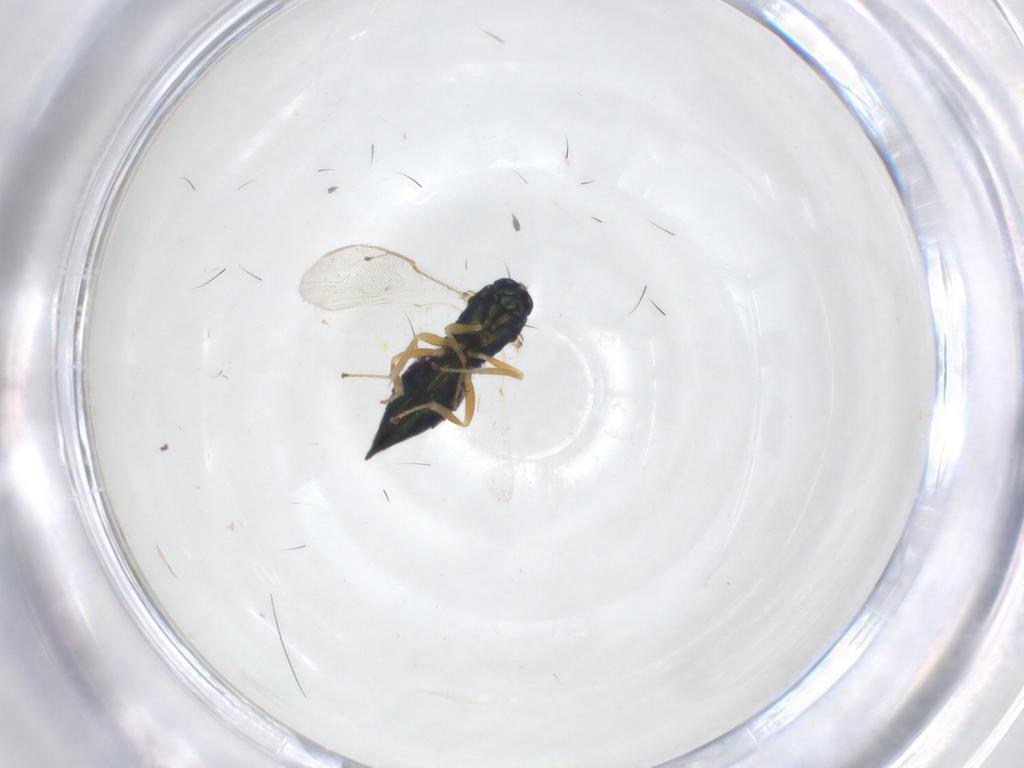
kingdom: Animalia
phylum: Arthropoda
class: Insecta
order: Hymenoptera
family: Pteromalidae
